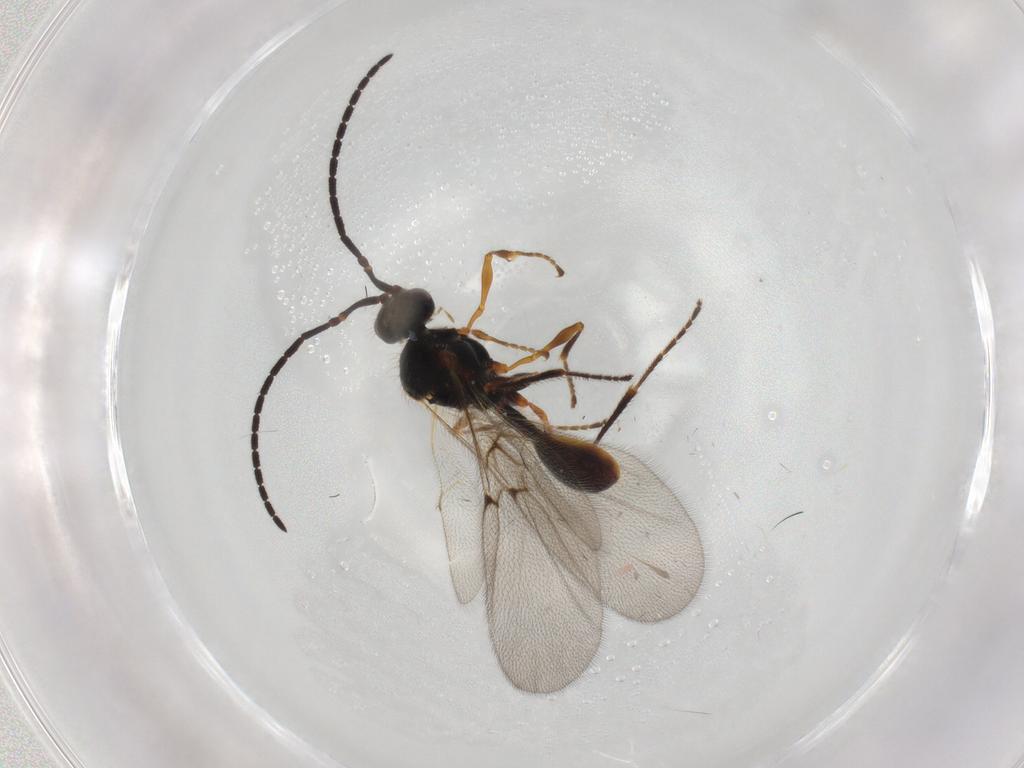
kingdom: Animalia
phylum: Arthropoda
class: Insecta
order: Hymenoptera
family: Diapriidae
